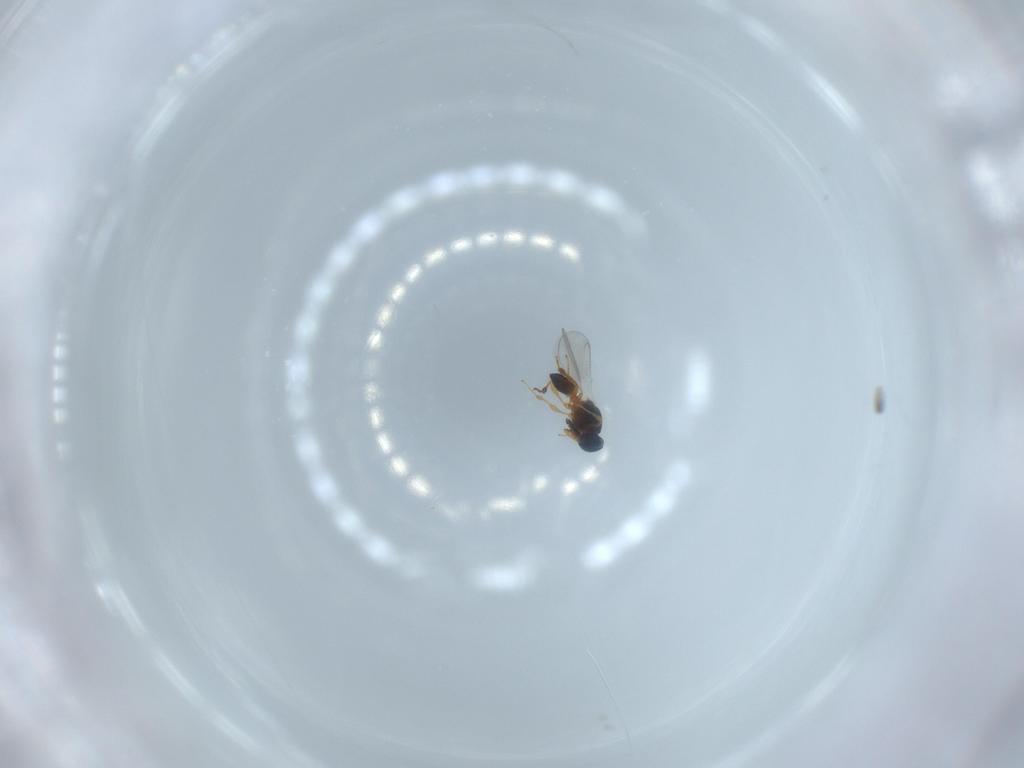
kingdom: Animalia
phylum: Arthropoda
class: Insecta
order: Hymenoptera
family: Platygastridae
